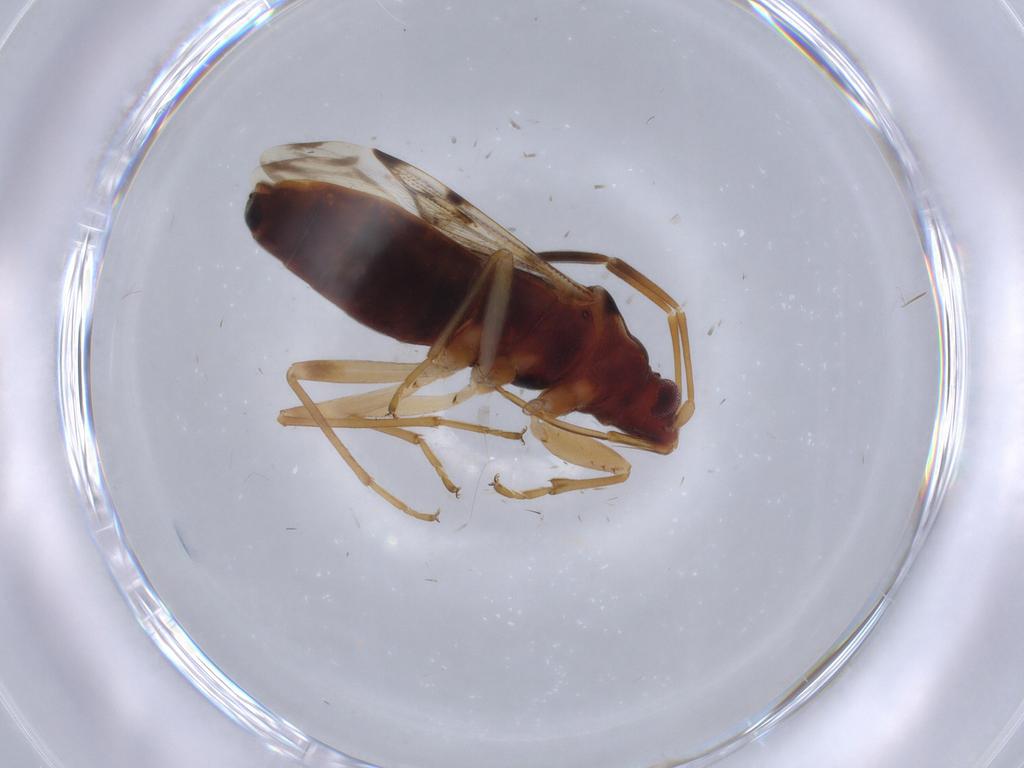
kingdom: Animalia
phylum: Arthropoda
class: Insecta
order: Hemiptera
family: Rhyparochromidae
